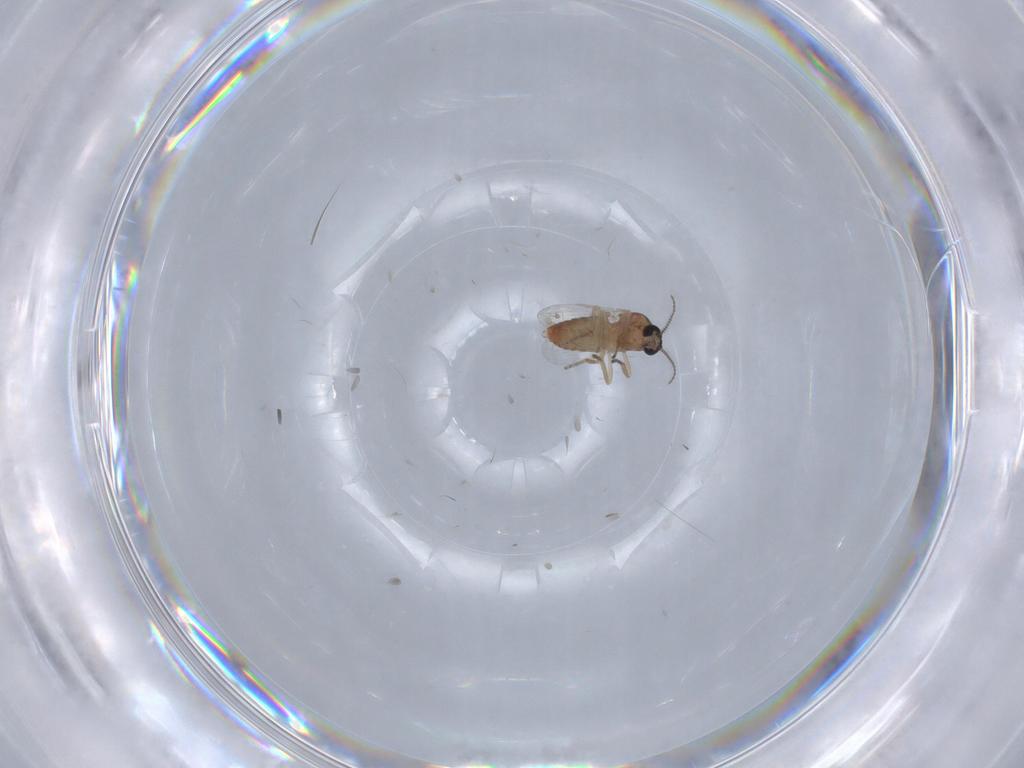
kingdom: Animalia
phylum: Arthropoda
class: Insecta
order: Diptera
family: Ceratopogonidae
